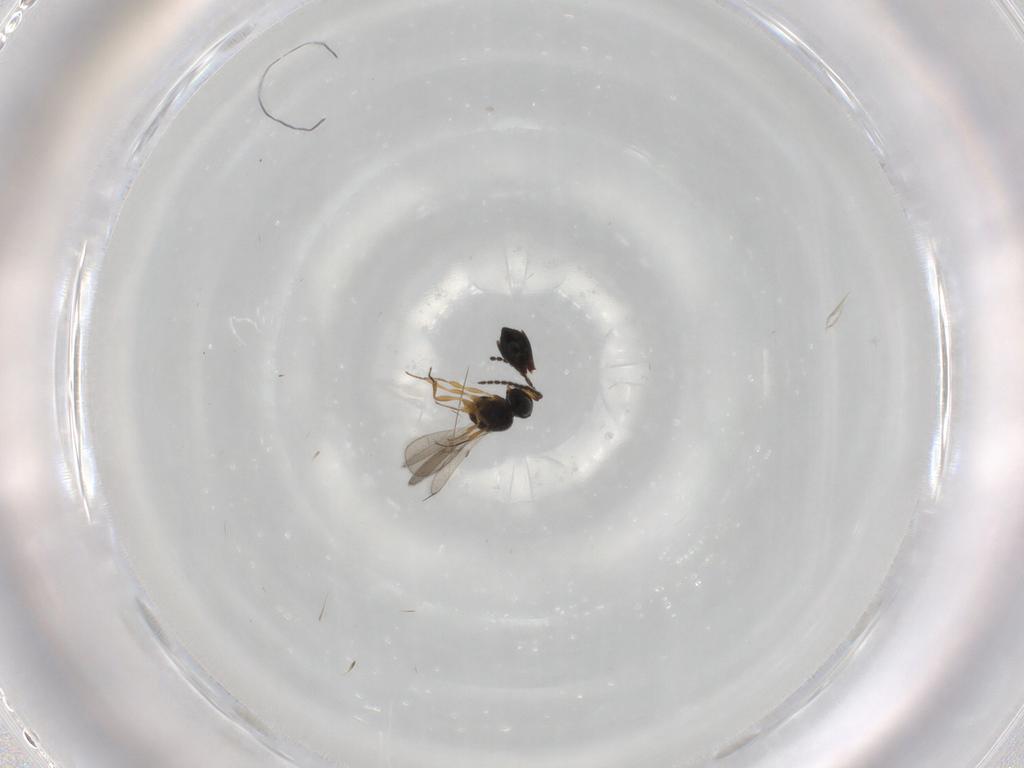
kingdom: Animalia
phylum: Arthropoda
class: Insecta
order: Hymenoptera
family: Scelionidae
